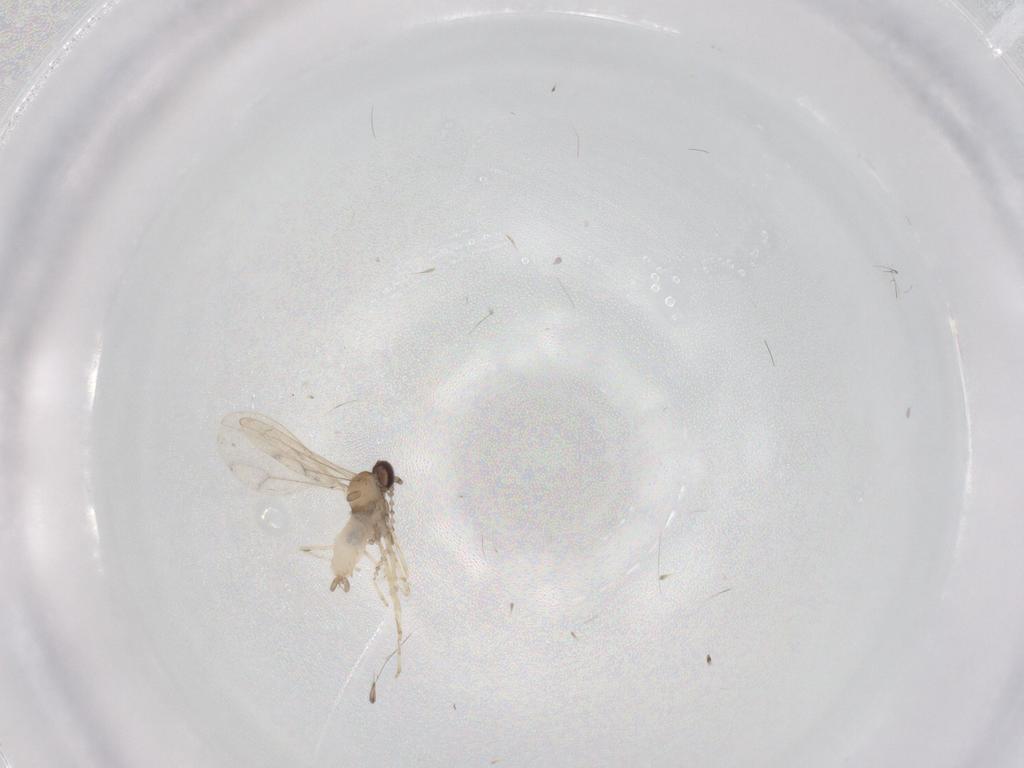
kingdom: Animalia
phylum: Arthropoda
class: Insecta
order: Diptera
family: Cecidomyiidae
